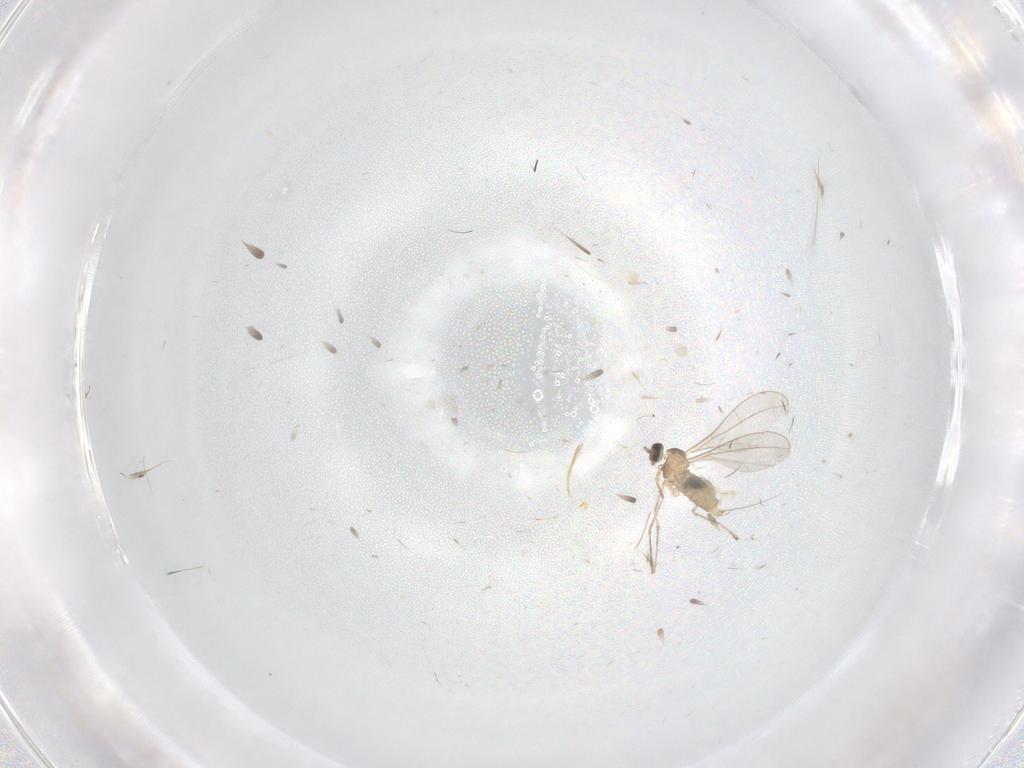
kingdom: Animalia
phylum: Arthropoda
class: Insecta
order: Diptera
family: Cecidomyiidae
